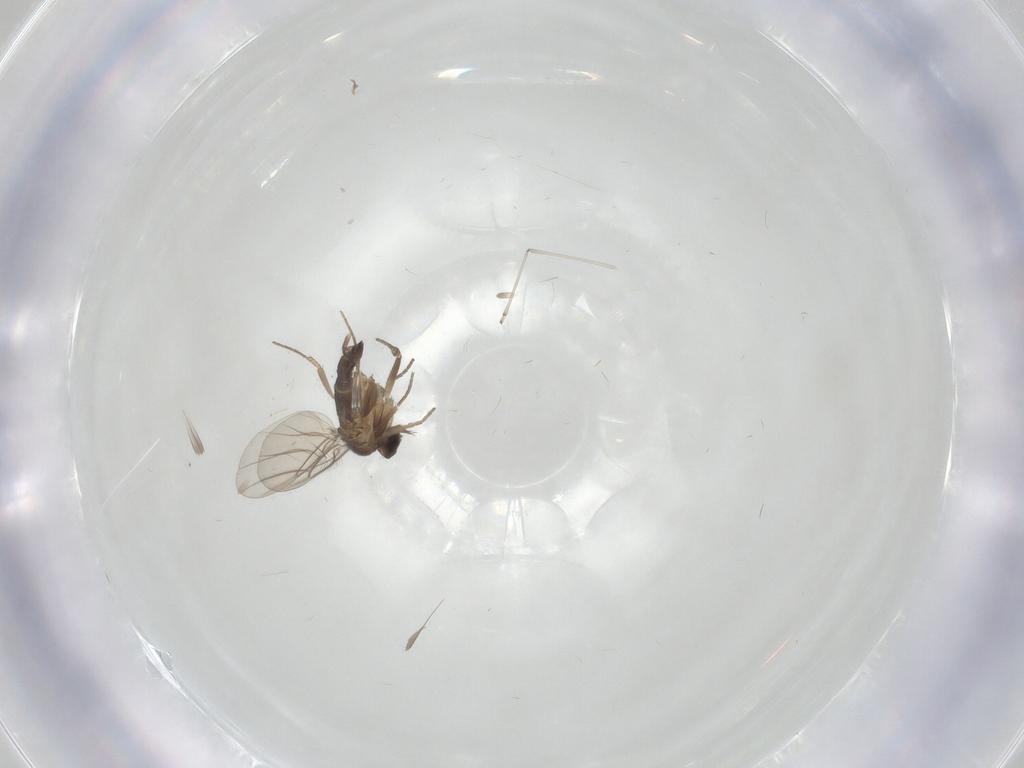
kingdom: Animalia
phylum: Arthropoda
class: Insecta
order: Diptera
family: Phoridae
